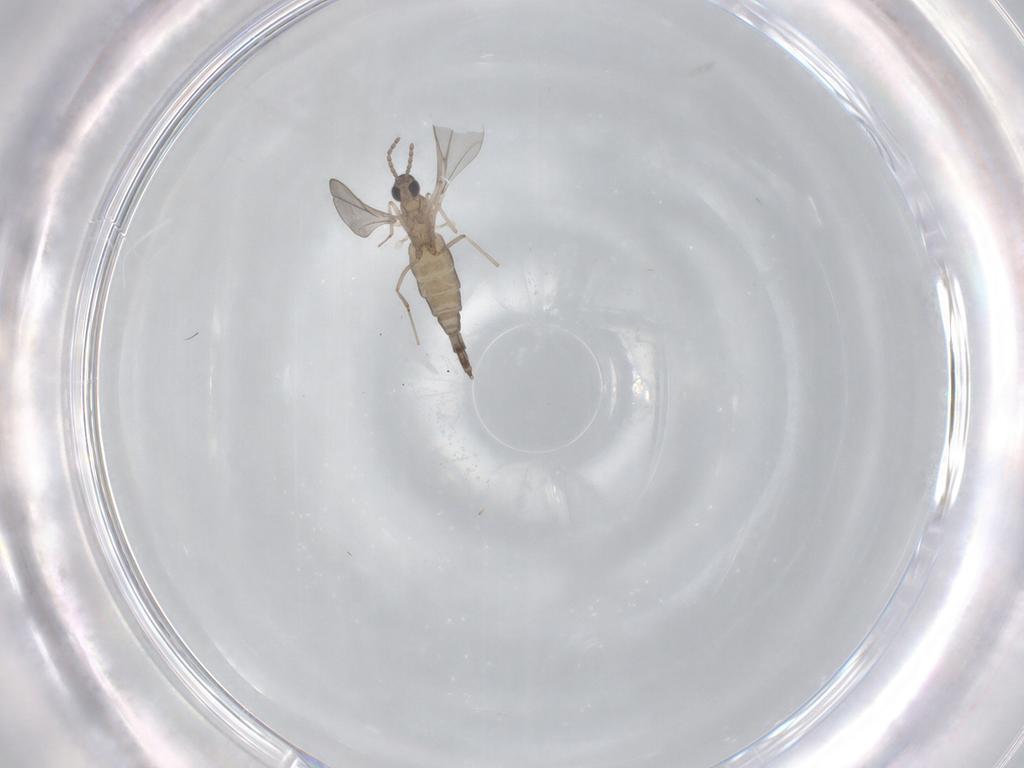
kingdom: Animalia
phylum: Arthropoda
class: Insecta
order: Diptera
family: Cecidomyiidae
